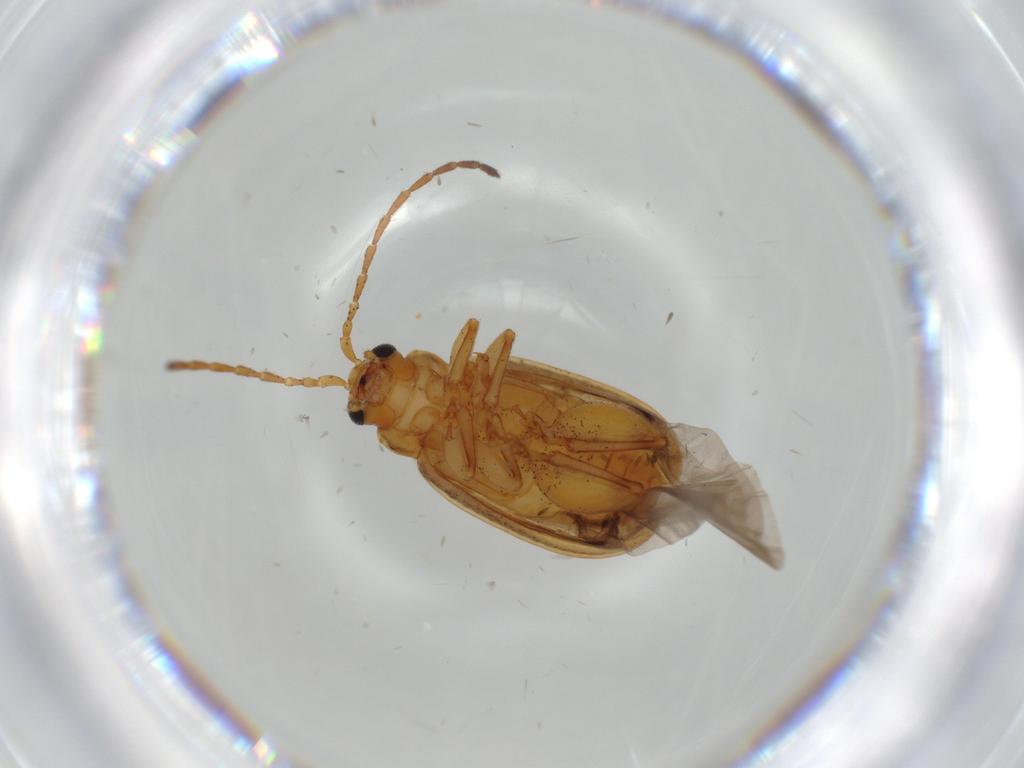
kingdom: Animalia
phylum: Arthropoda
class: Insecta
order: Coleoptera
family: Chrysomelidae
